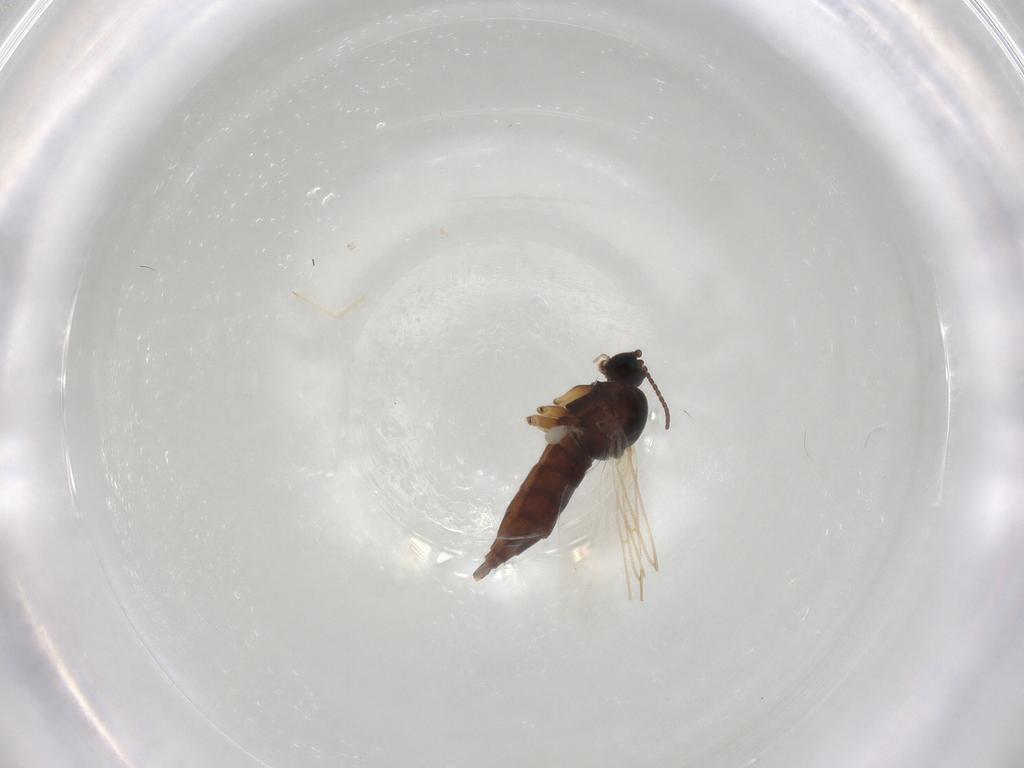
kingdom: Animalia
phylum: Arthropoda
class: Insecta
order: Diptera
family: Sciaridae
